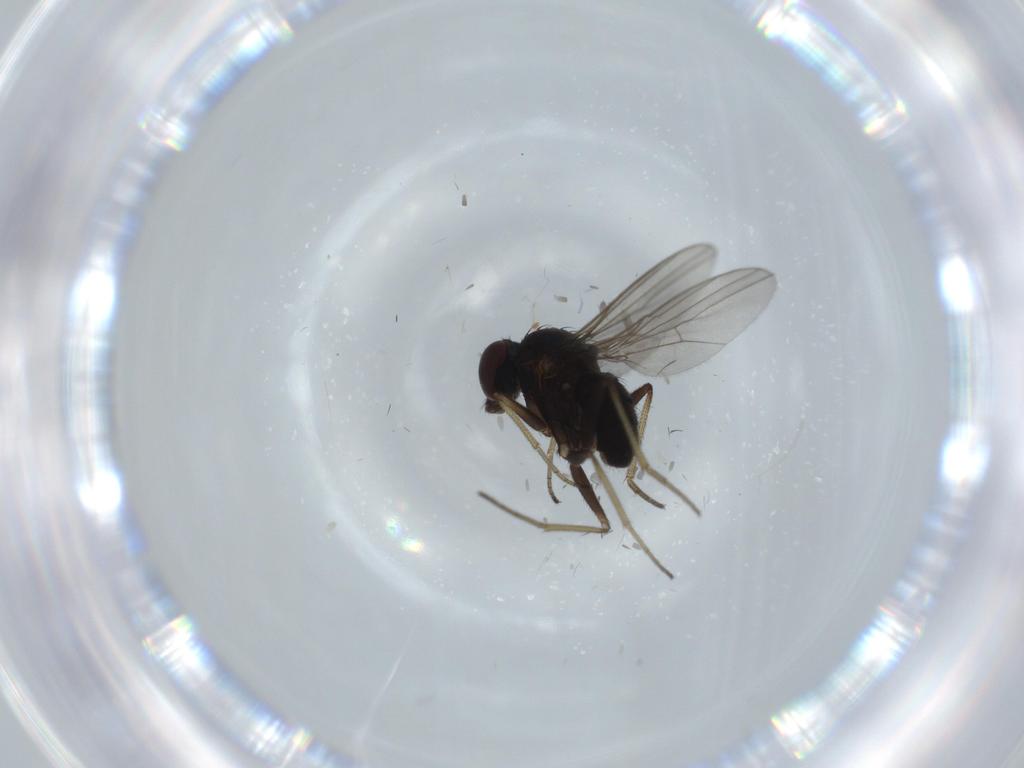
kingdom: Animalia
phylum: Arthropoda
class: Insecta
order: Diptera
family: Dolichopodidae
